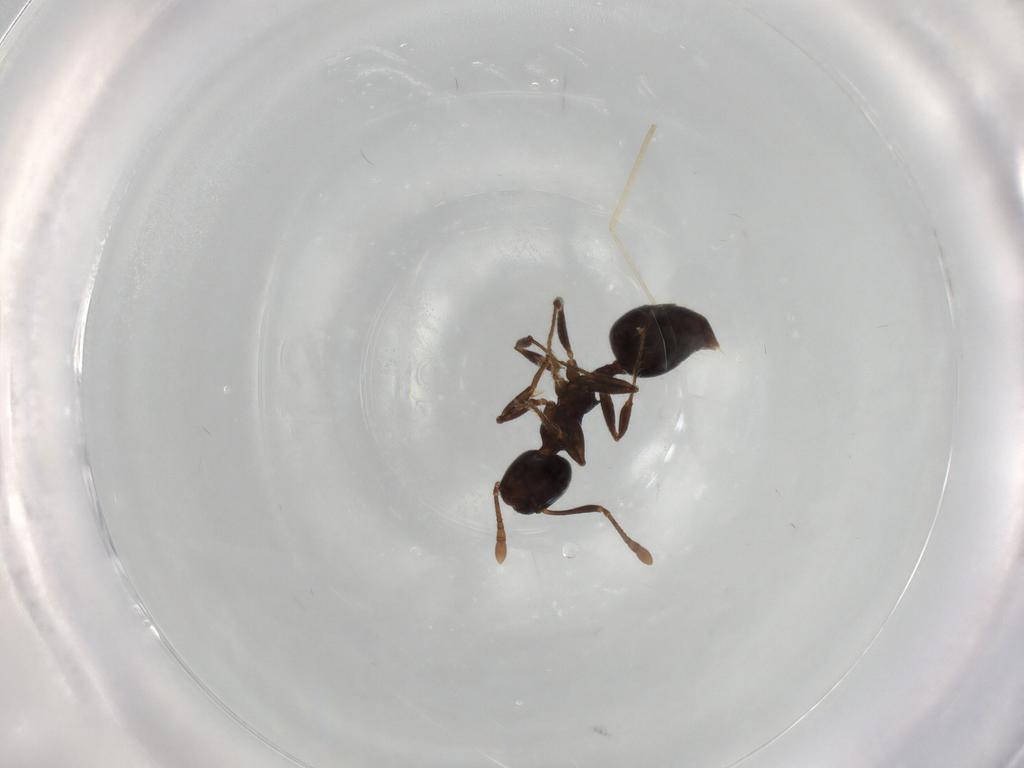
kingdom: Animalia
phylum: Arthropoda
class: Insecta
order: Hymenoptera
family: Formicidae
